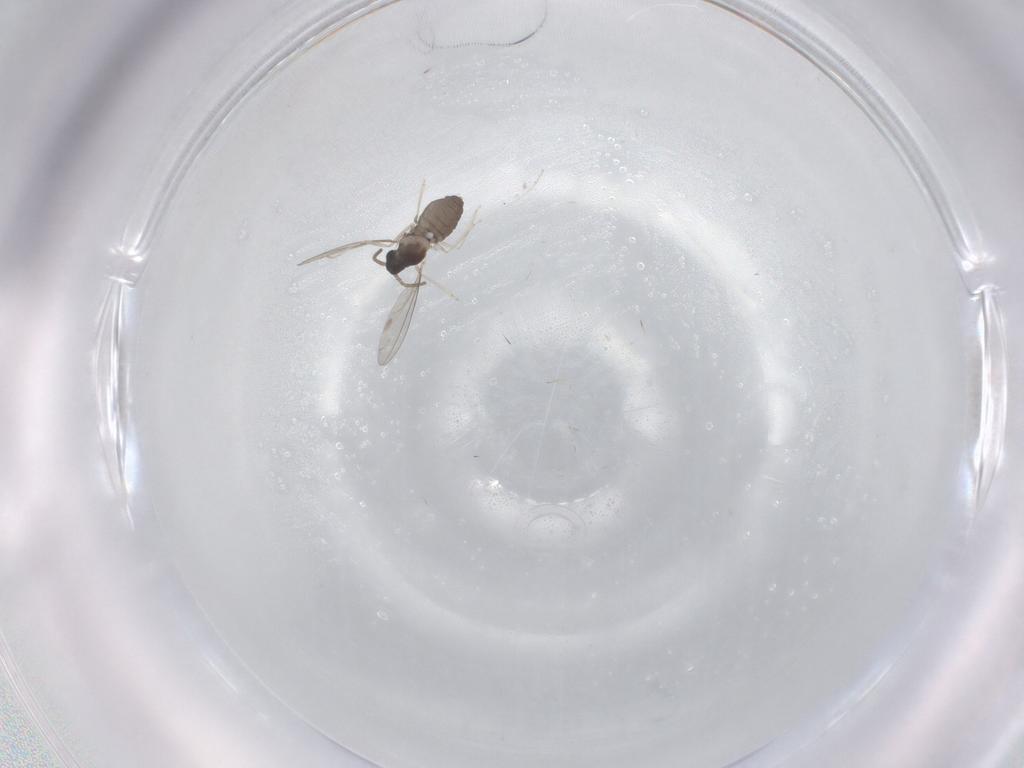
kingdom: Animalia
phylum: Arthropoda
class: Insecta
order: Diptera
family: Cecidomyiidae
